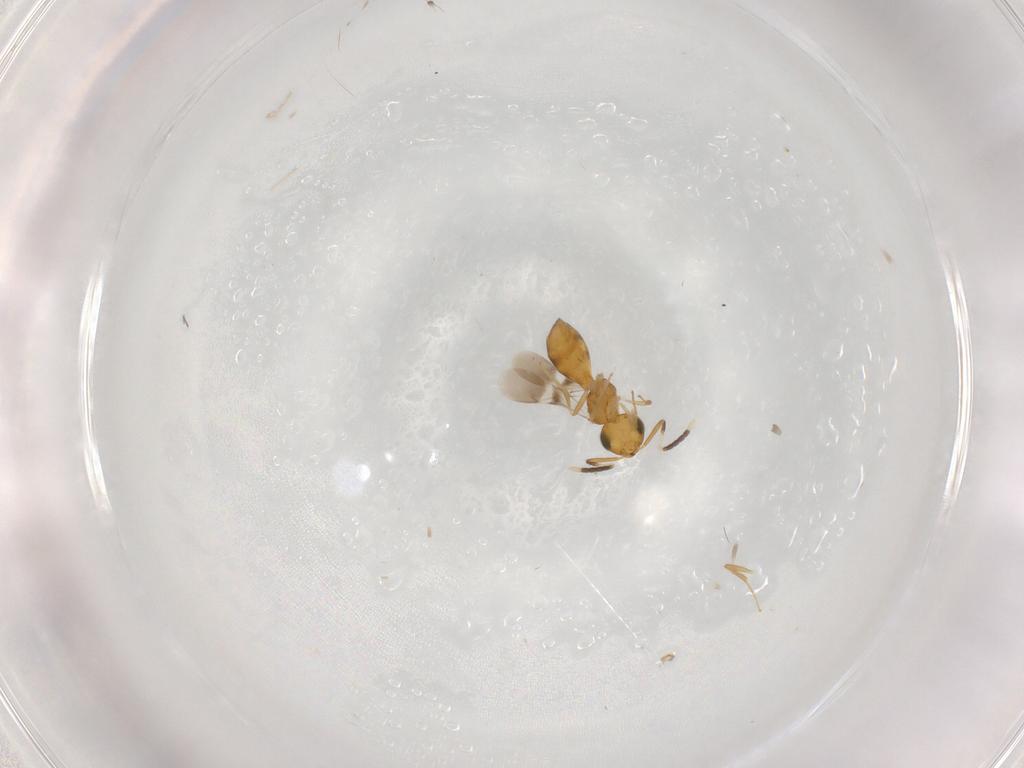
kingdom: Animalia
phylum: Arthropoda
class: Insecta
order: Hymenoptera
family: Scelionidae
